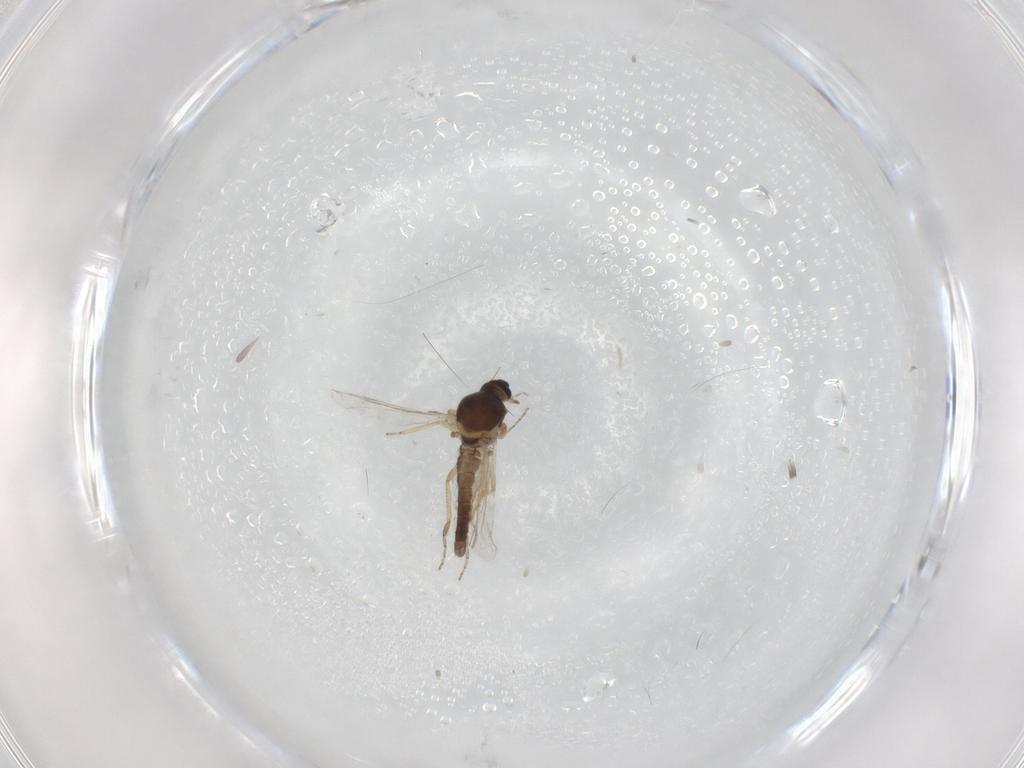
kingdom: Animalia
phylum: Arthropoda
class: Insecta
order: Diptera
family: Ceratopogonidae
